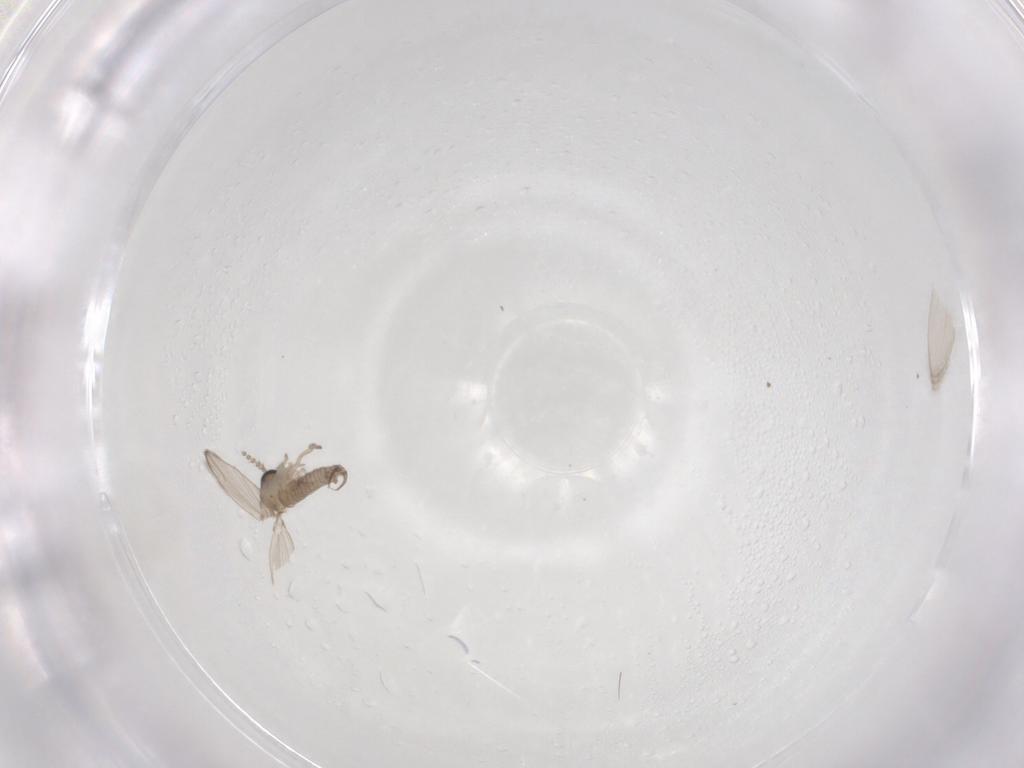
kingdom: Animalia
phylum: Arthropoda
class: Insecta
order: Diptera
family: Psychodidae
